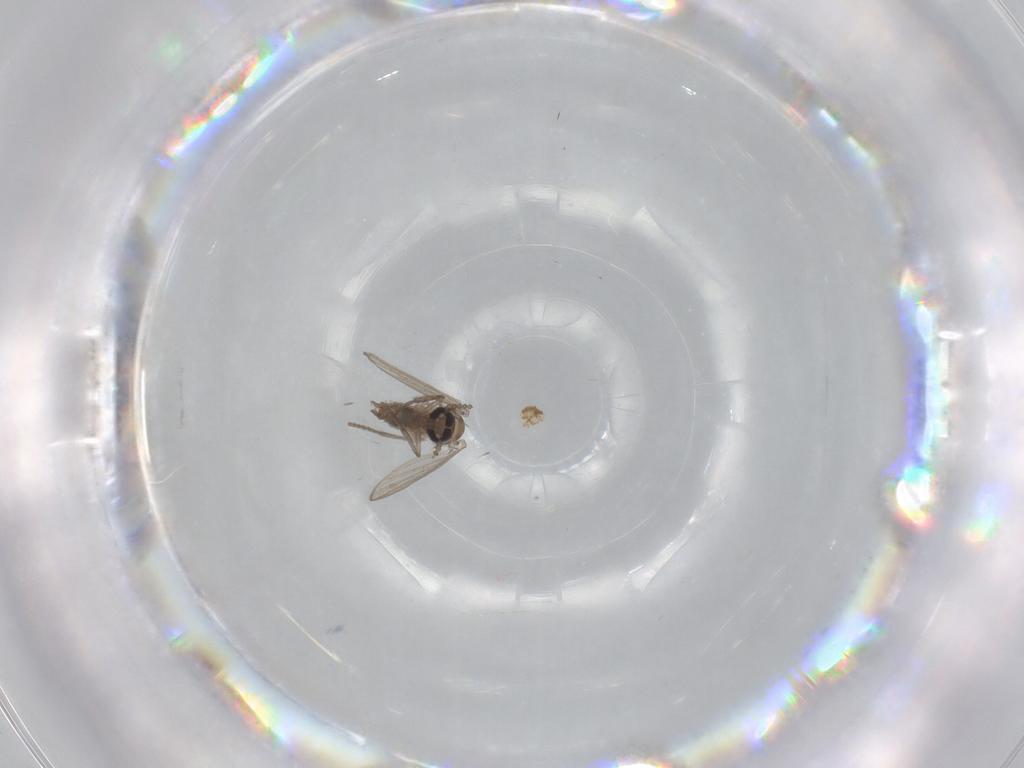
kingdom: Animalia
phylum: Arthropoda
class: Insecta
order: Diptera
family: Psychodidae
